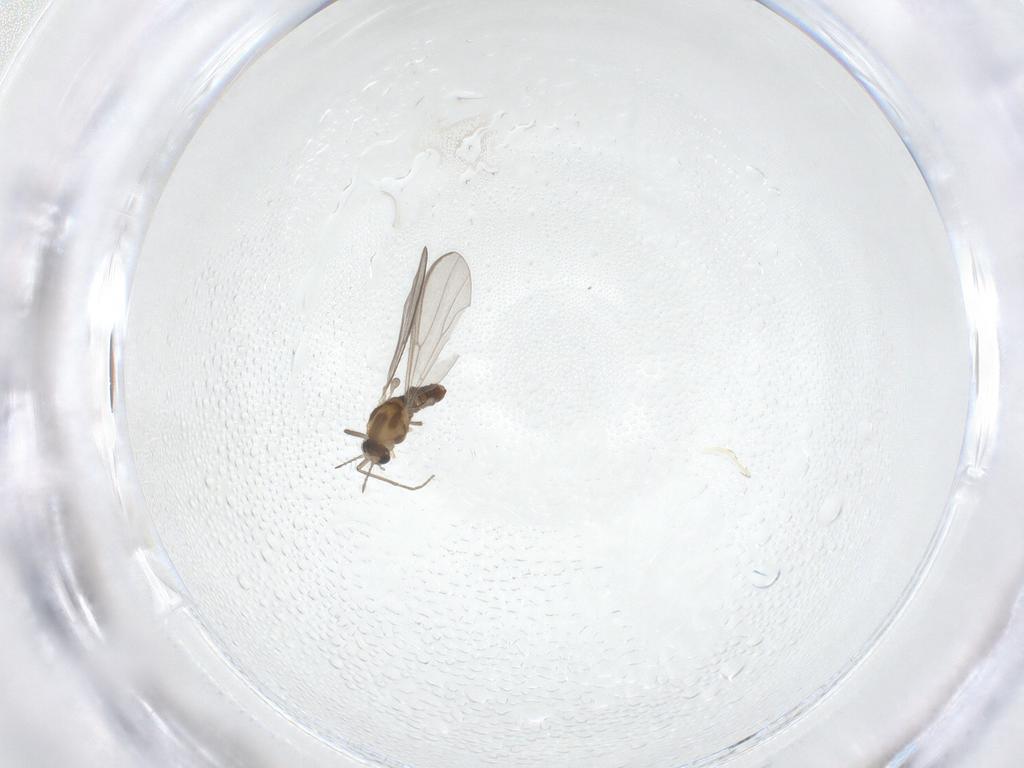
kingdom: Animalia
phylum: Arthropoda
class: Insecta
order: Diptera
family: Chironomidae
